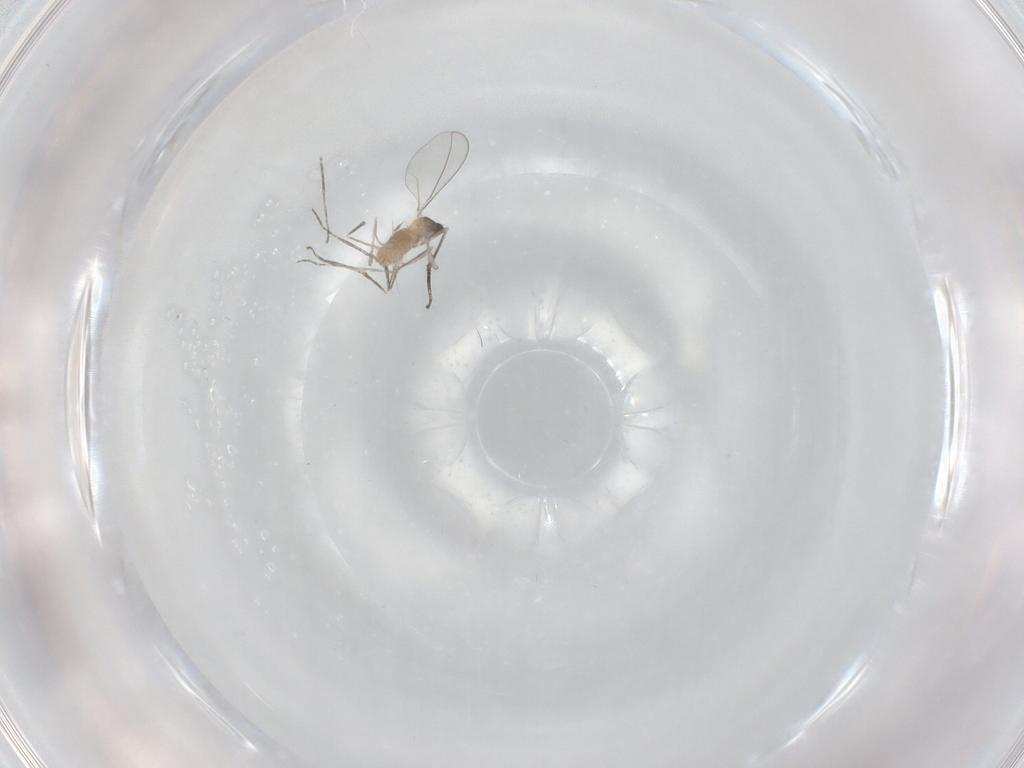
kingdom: Animalia
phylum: Arthropoda
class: Insecta
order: Diptera
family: Cecidomyiidae
